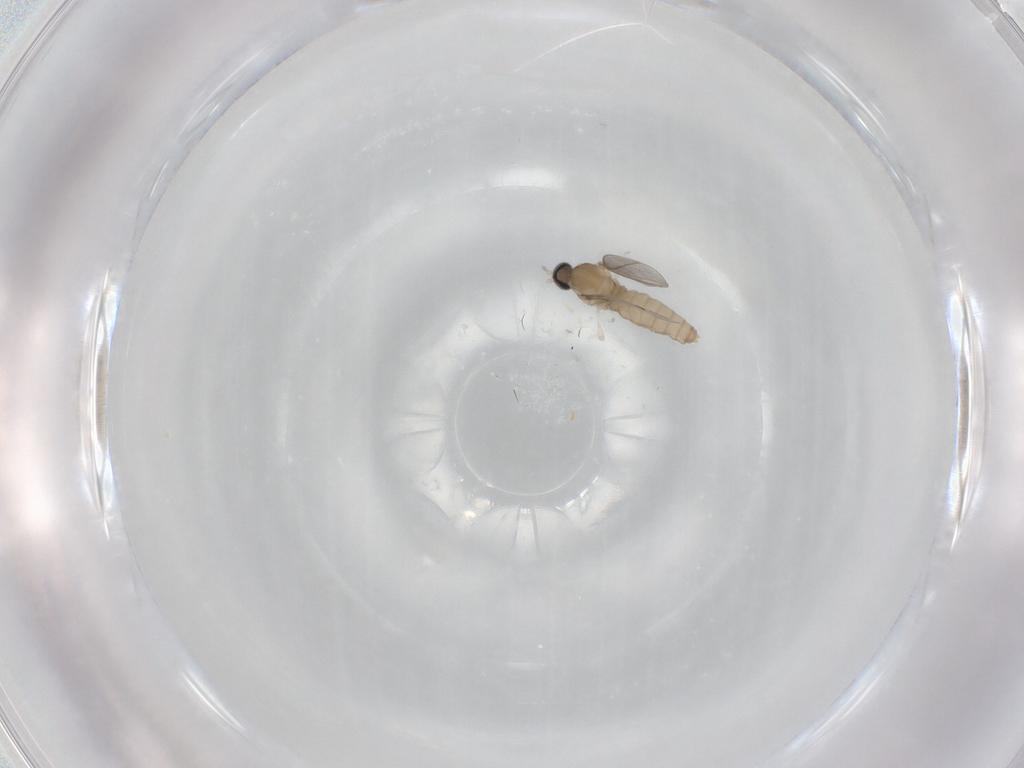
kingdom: Animalia
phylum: Arthropoda
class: Insecta
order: Diptera
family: Cecidomyiidae
